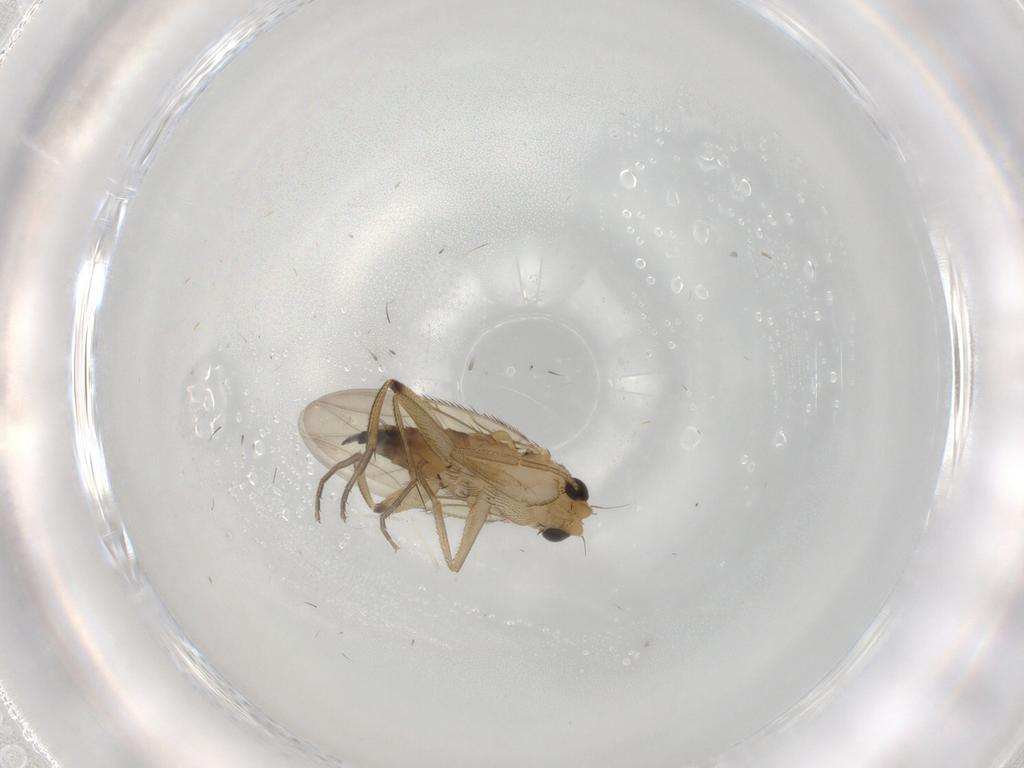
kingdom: Animalia
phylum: Arthropoda
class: Insecta
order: Diptera
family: Phoridae
